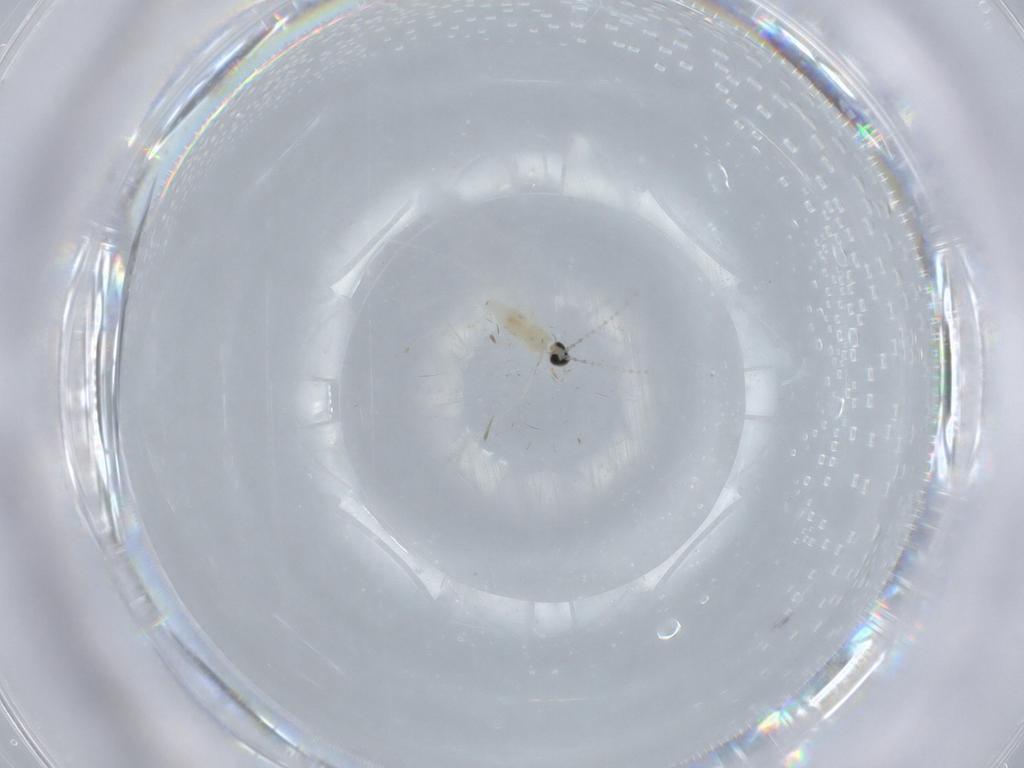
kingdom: Animalia
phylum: Arthropoda
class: Insecta
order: Diptera
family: Cecidomyiidae
